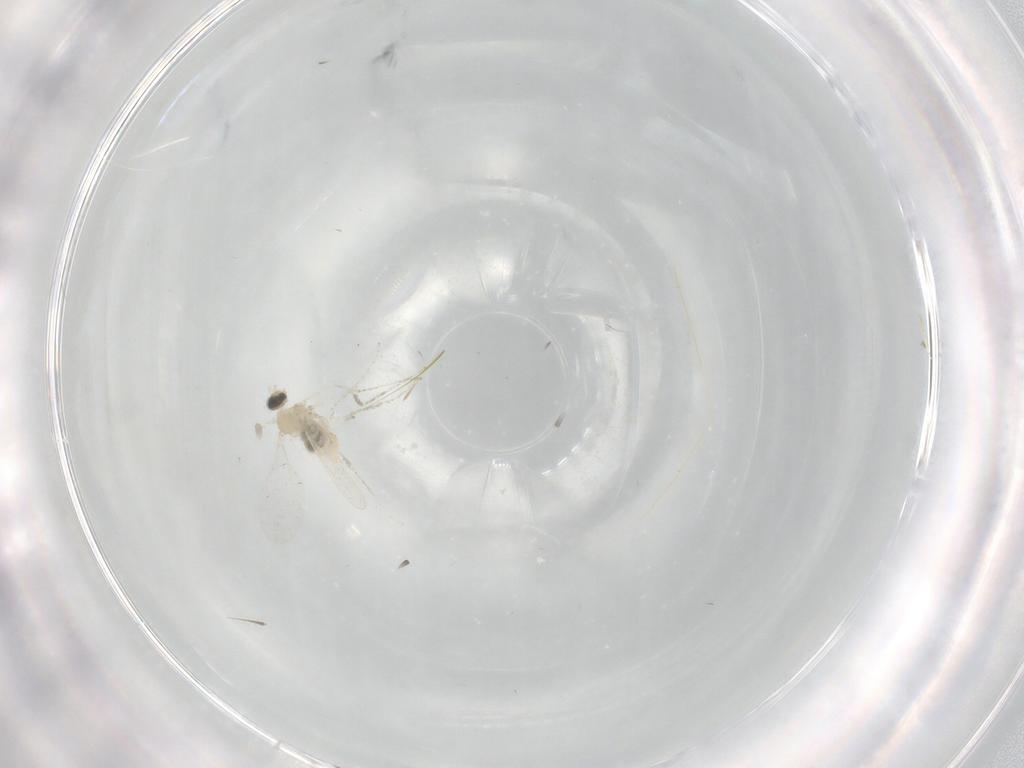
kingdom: Animalia
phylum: Arthropoda
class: Insecta
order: Diptera
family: Cecidomyiidae
